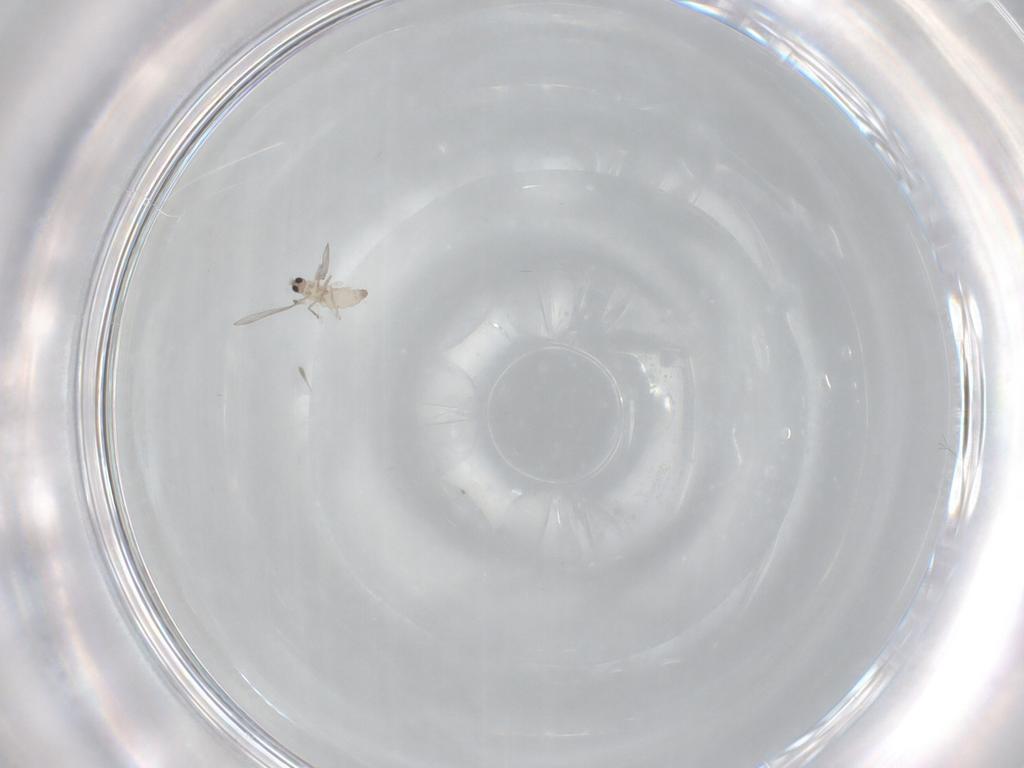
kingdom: Animalia
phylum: Arthropoda
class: Insecta
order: Diptera
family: Cecidomyiidae
